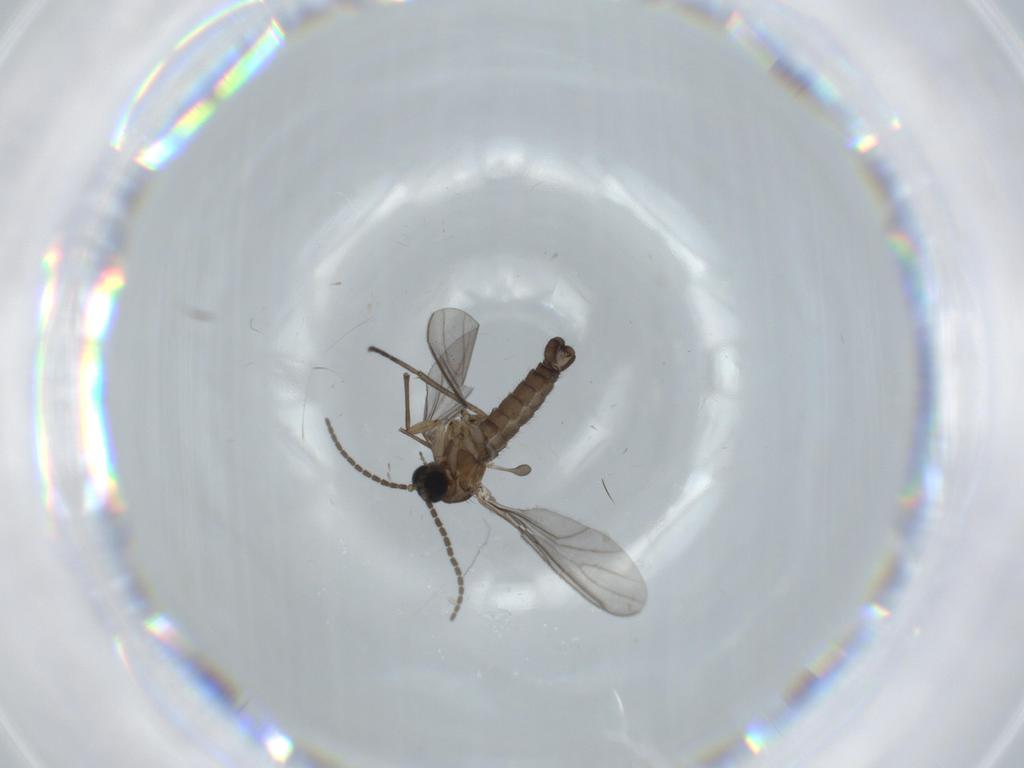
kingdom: Animalia
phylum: Arthropoda
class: Insecta
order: Diptera
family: Sciaridae
